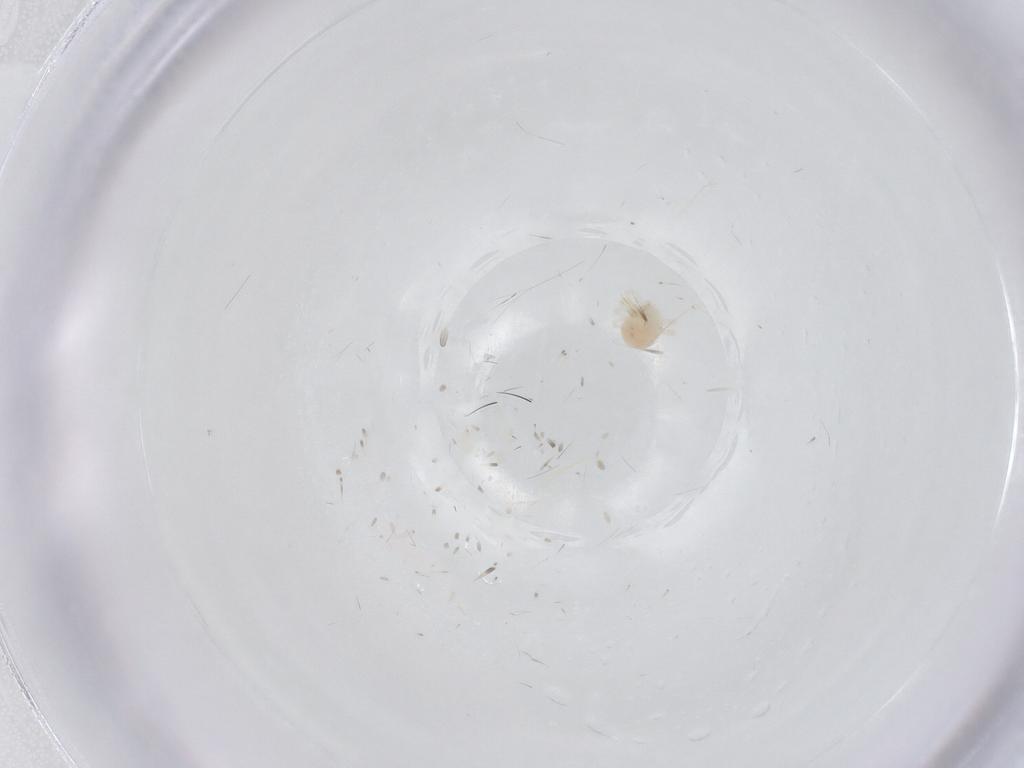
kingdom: Animalia
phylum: Arthropoda
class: Arachnida
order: Trombidiformes
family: Anystidae
